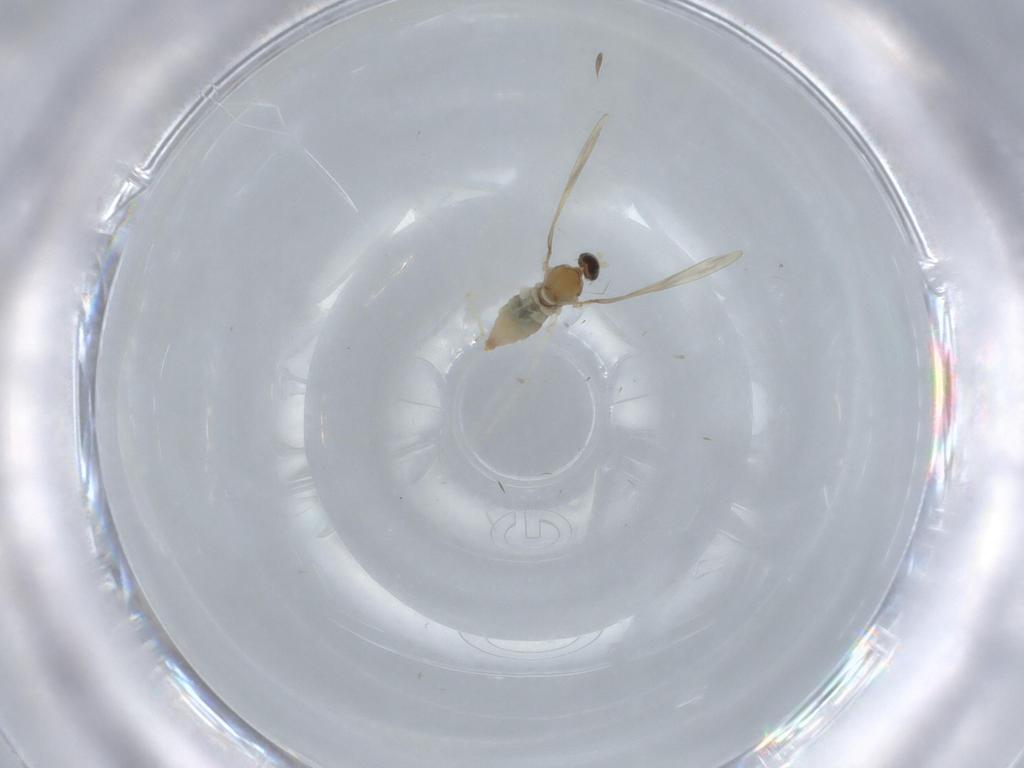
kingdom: Animalia
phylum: Arthropoda
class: Insecta
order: Diptera
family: Cecidomyiidae
